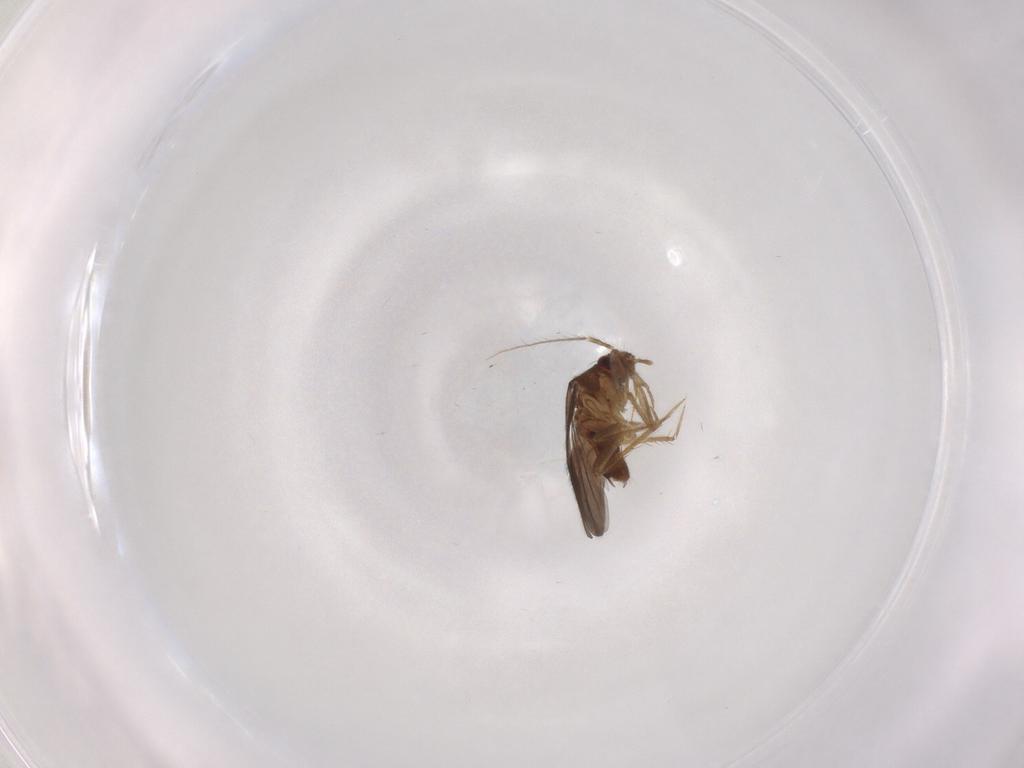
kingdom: Animalia
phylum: Arthropoda
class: Insecta
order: Hemiptera
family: Ceratocombidae
